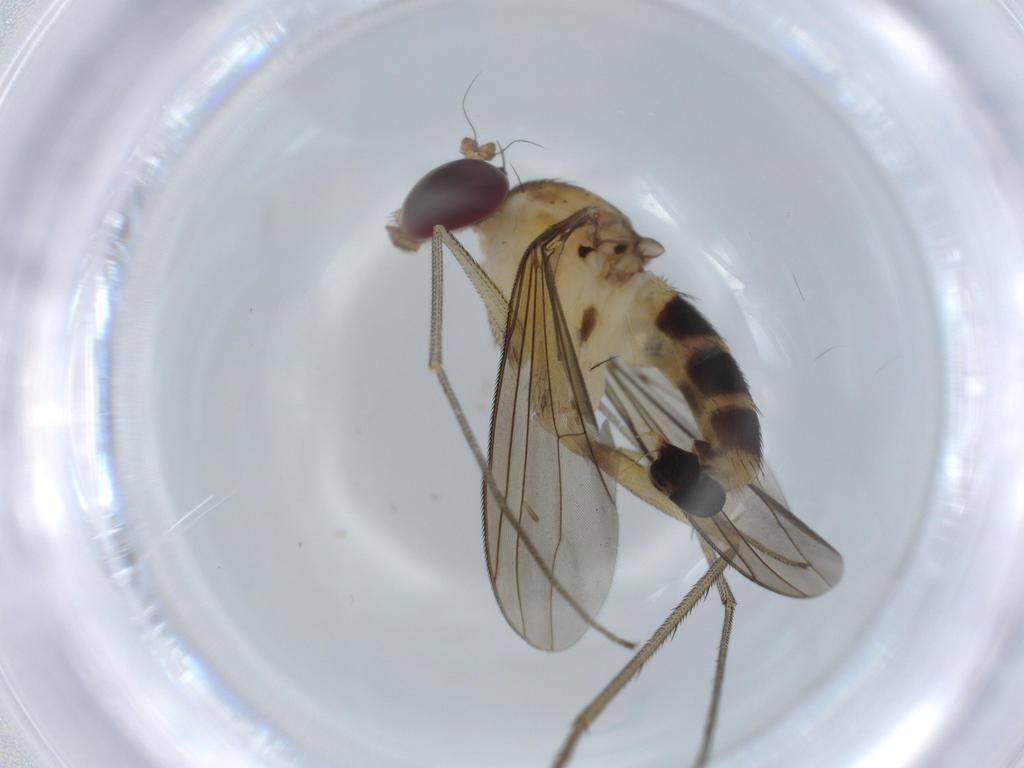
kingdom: Animalia
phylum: Arthropoda
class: Insecta
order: Diptera
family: Dolichopodidae
